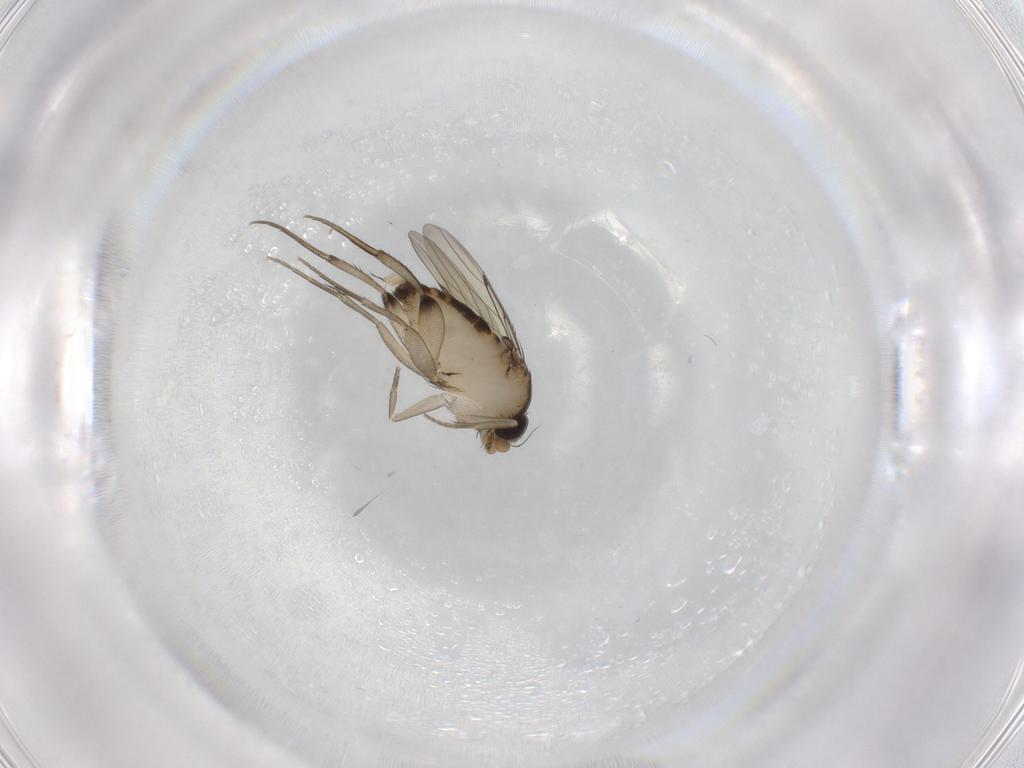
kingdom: Animalia
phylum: Arthropoda
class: Insecta
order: Diptera
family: Phoridae
